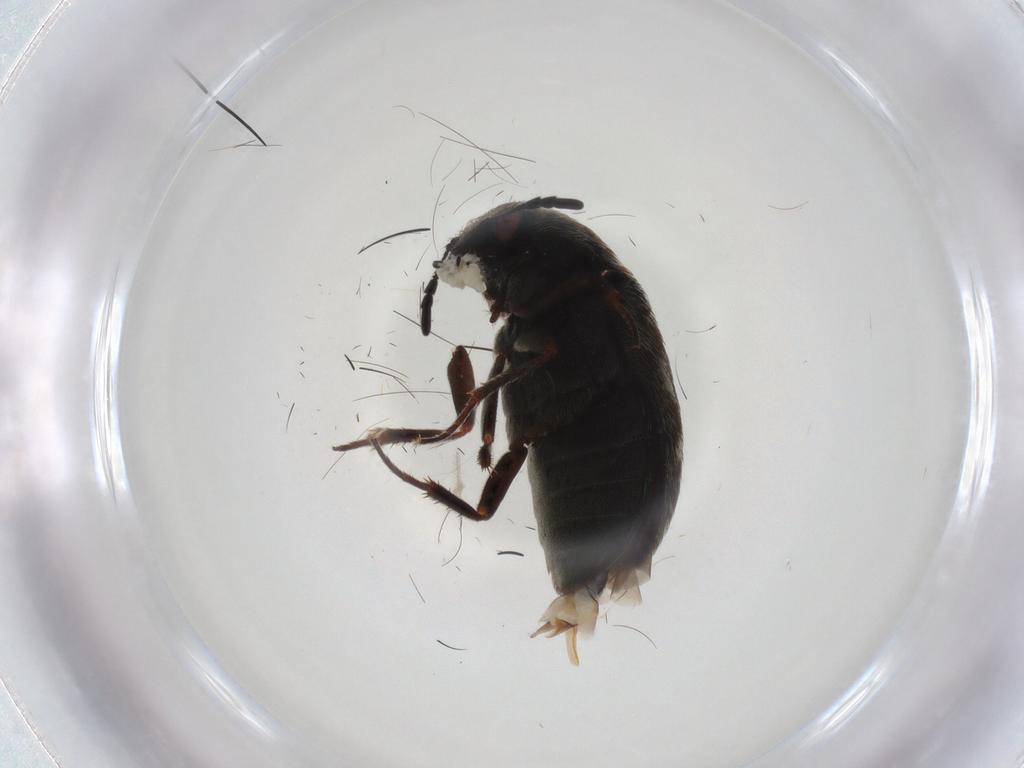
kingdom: Animalia
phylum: Arthropoda
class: Insecta
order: Coleoptera
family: Dermestidae
